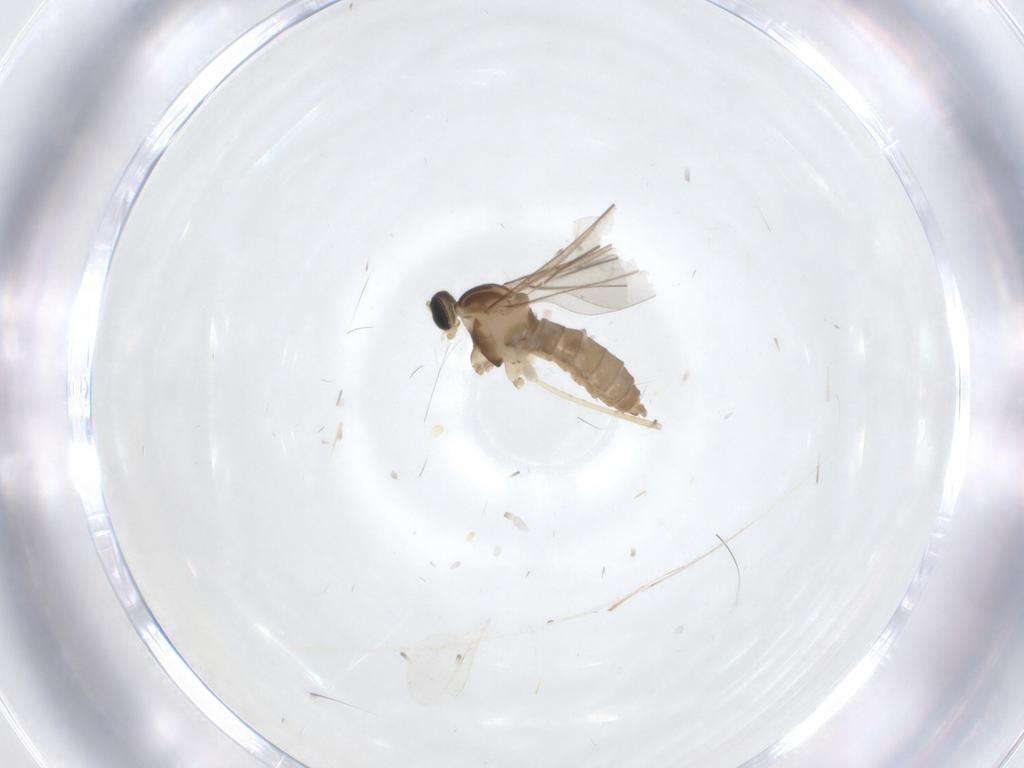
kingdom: Animalia
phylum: Arthropoda
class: Insecta
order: Diptera
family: Cecidomyiidae
